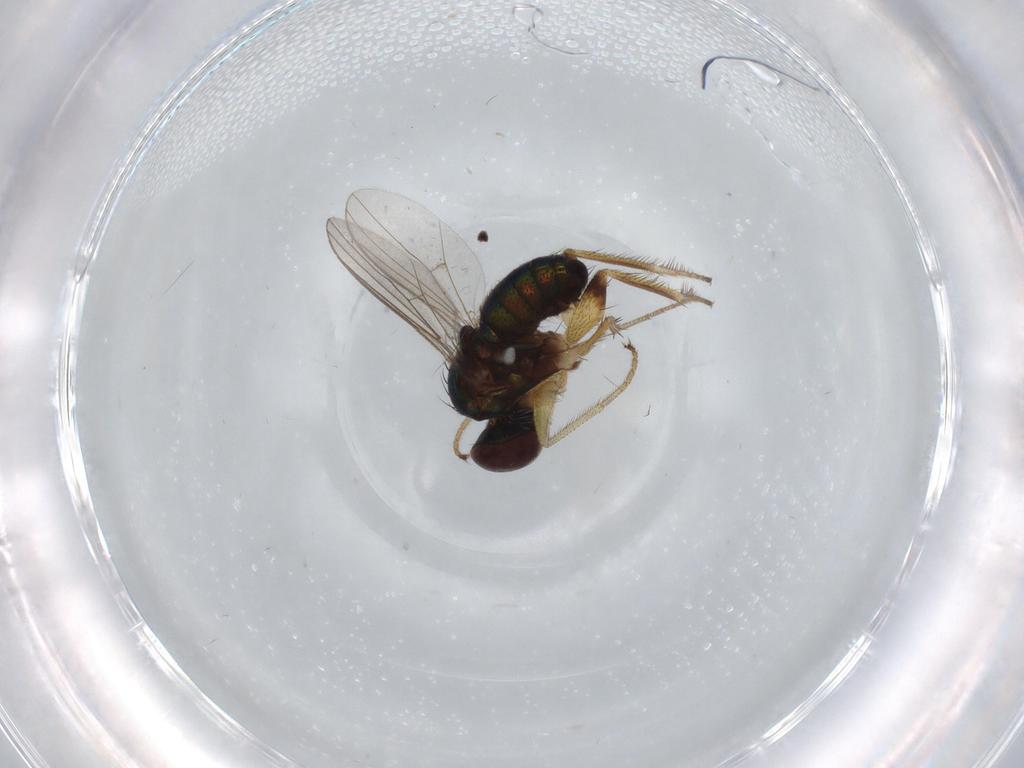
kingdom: Animalia
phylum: Arthropoda
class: Insecta
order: Diptera
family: Dolichopodidae
